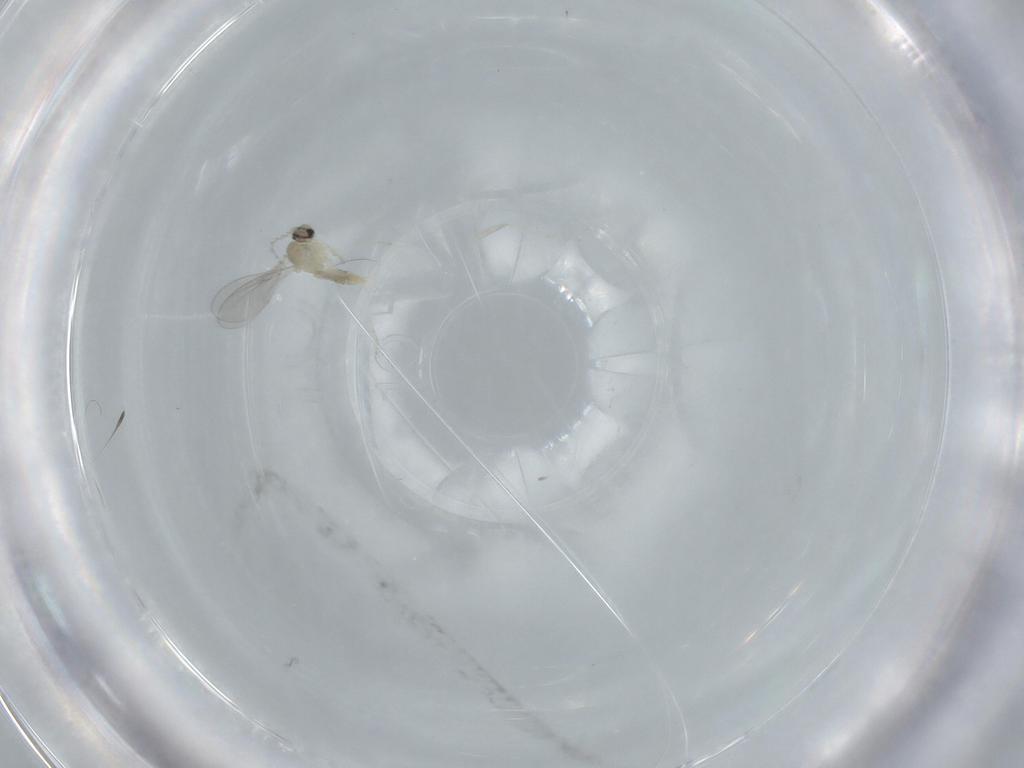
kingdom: Animalia
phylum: Arthropoda
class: Insecta
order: Diptera
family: Cecidomyiidae
